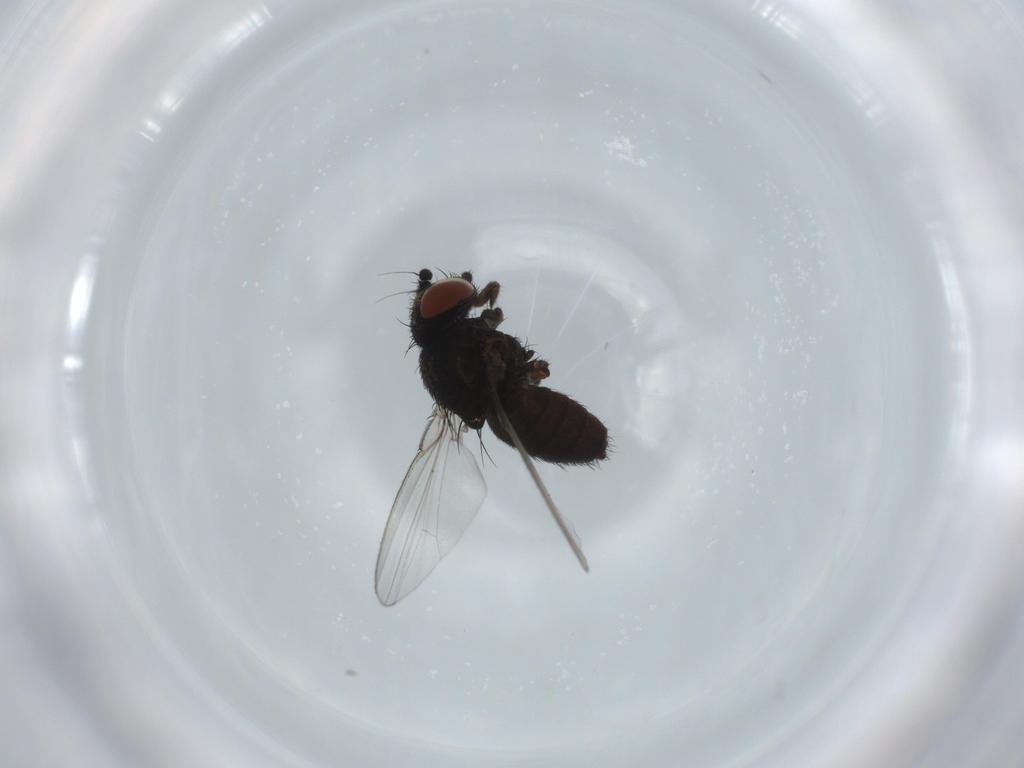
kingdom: Animalia
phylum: Arthropoda
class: Insecta
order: Diptera
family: Milichiidae
